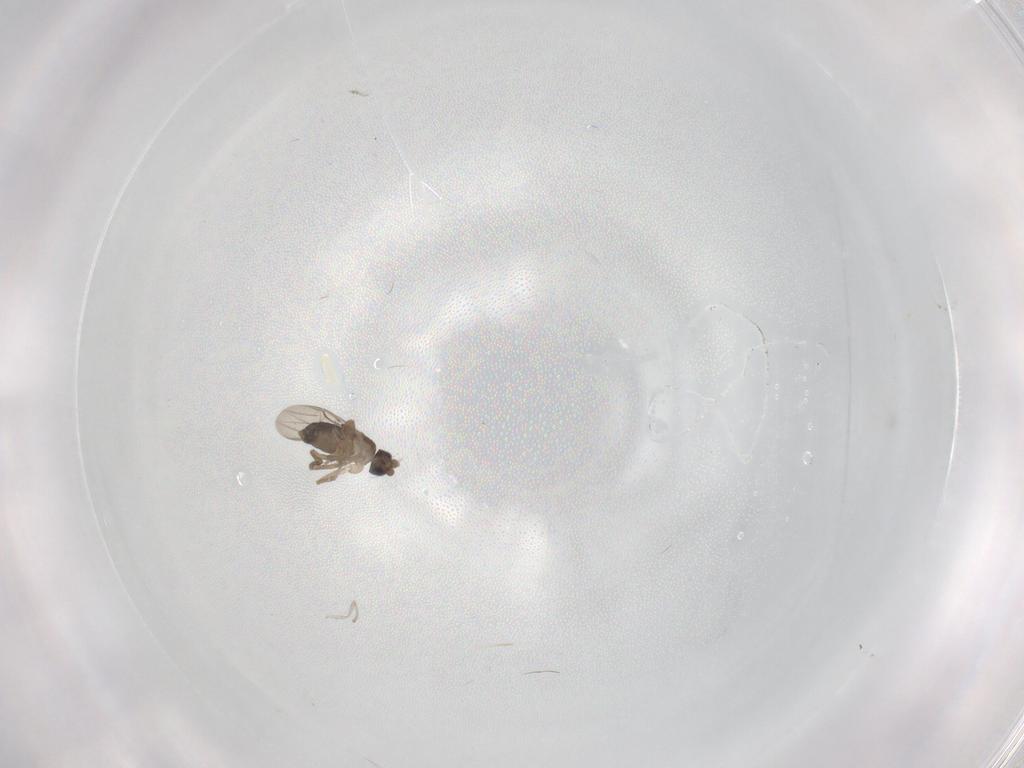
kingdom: Animalia
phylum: Arthropoda
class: Insecta
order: Diptera
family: Phoridae
